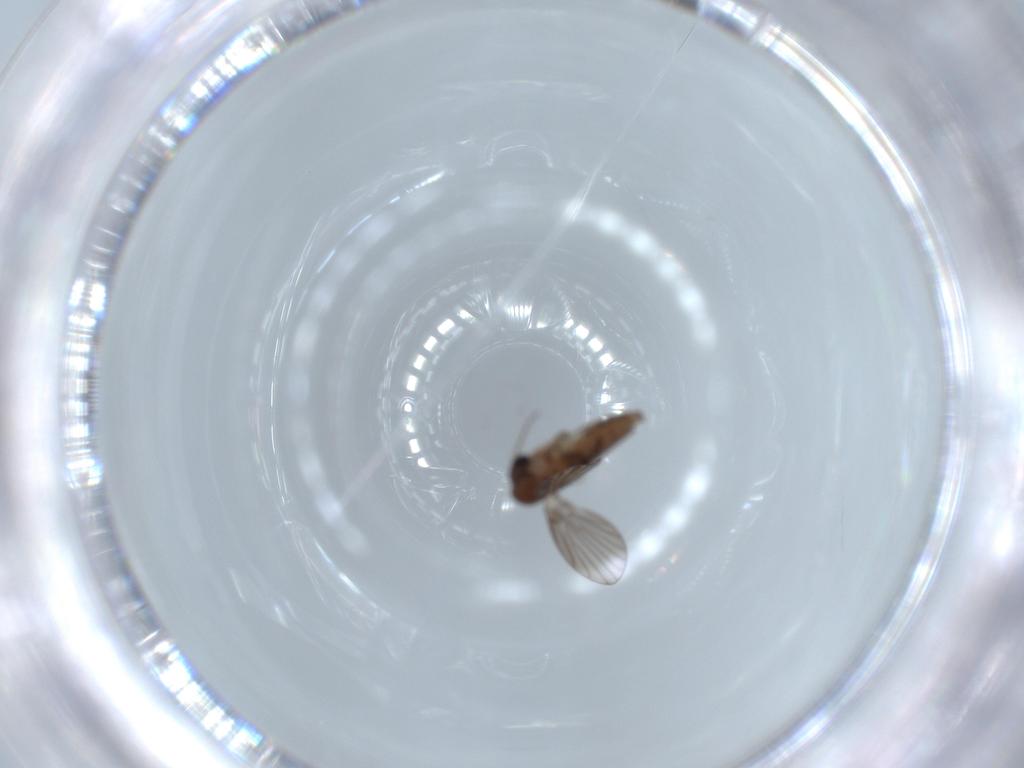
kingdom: Animalia
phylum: Arthropoda
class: Insecta
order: Diptera
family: Psychodidae
